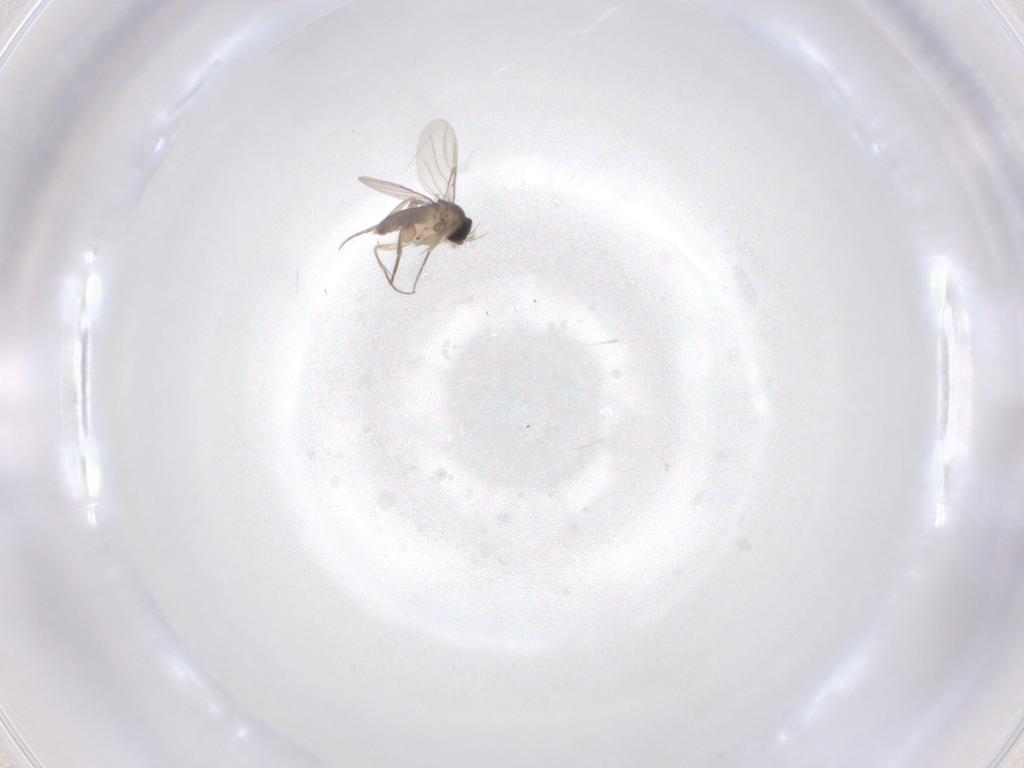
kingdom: Animalia
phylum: Arthropoda
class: Insecta
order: Diptera
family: Phoridae
